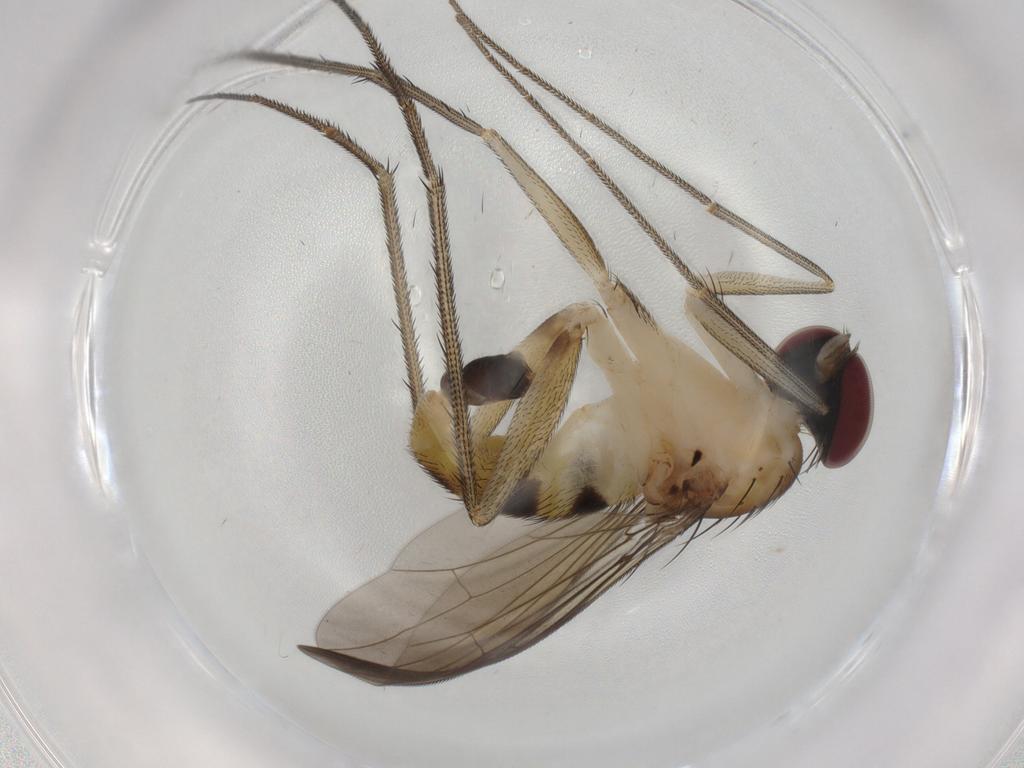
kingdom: Animalia
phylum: Arthropoda
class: Insecta
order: Diptera
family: Dolichopodidae
